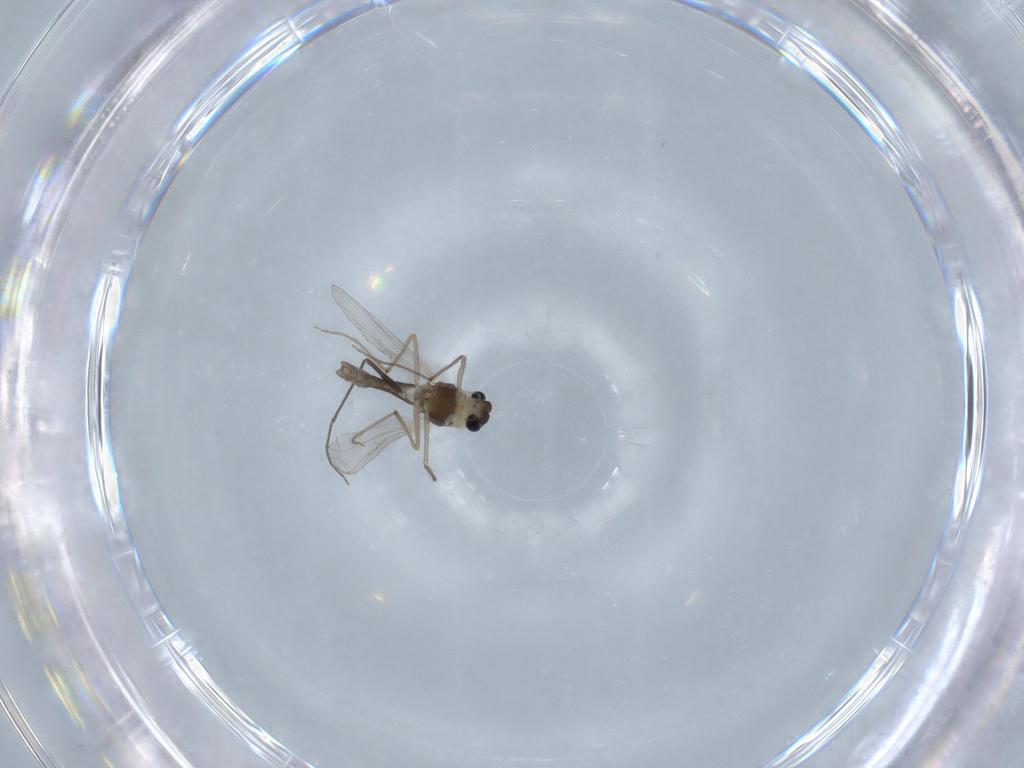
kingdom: Animalia
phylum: Arthropoda
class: Insecta
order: Diptera
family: Chironomidae
